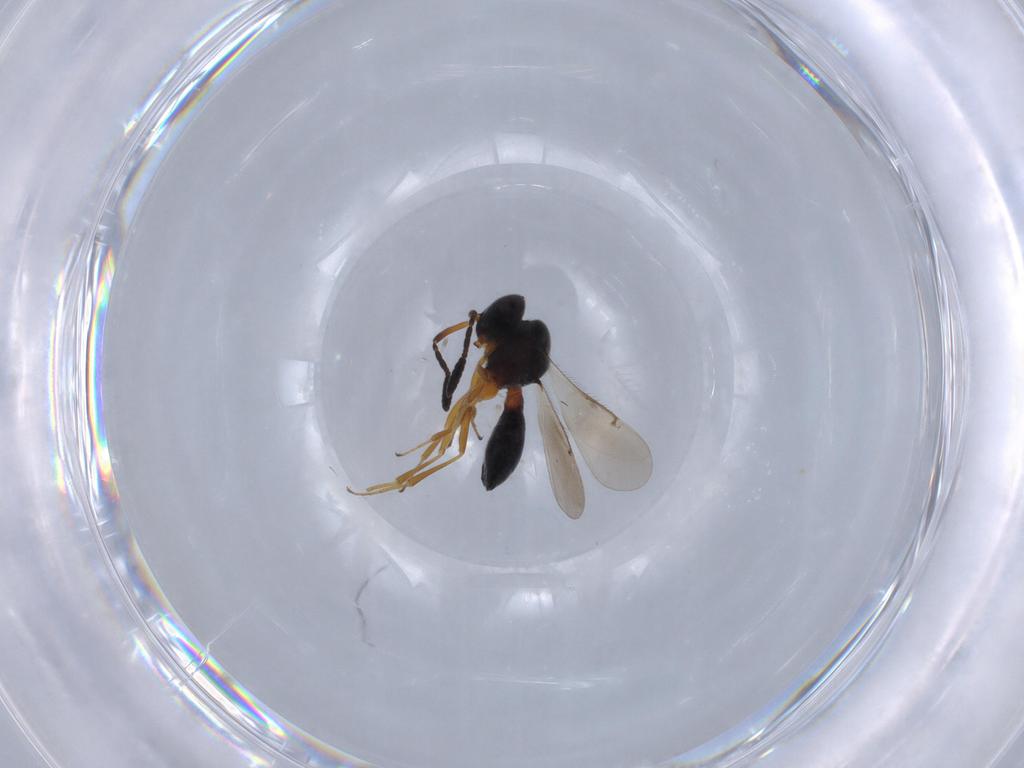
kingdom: Animalia
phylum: Arthropoda
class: Insecta
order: Hymenoptera
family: Scelionidae
